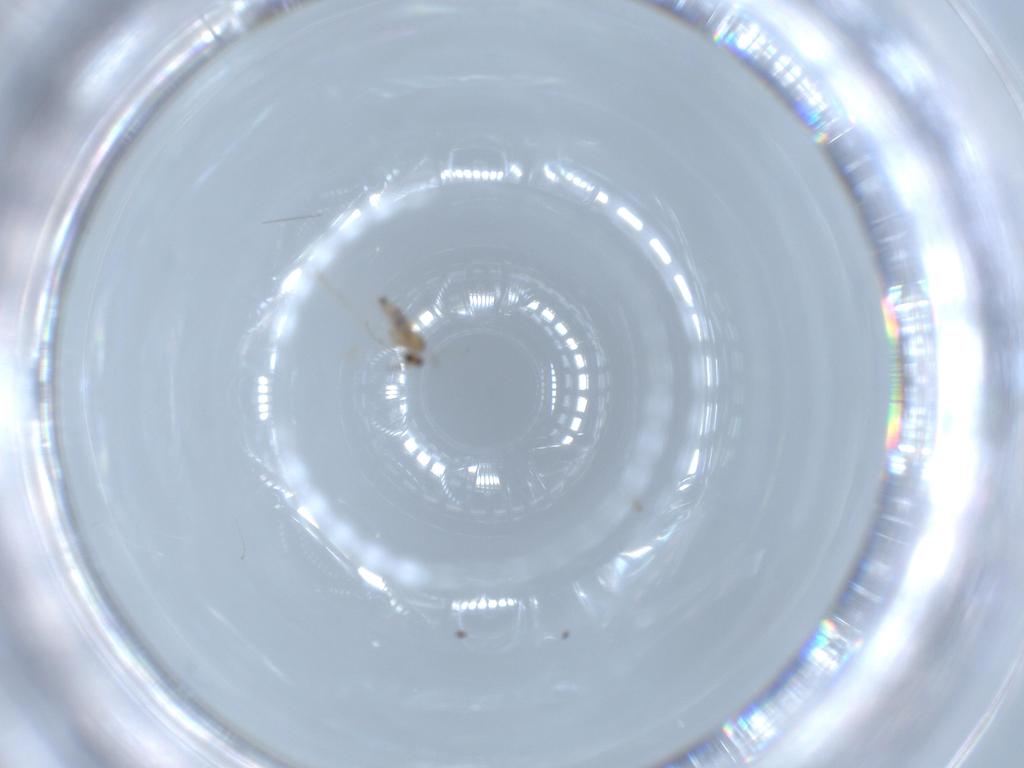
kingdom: Animalia
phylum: Arthropoda
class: Insecta
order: Diptera
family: Cecidomyiidae
